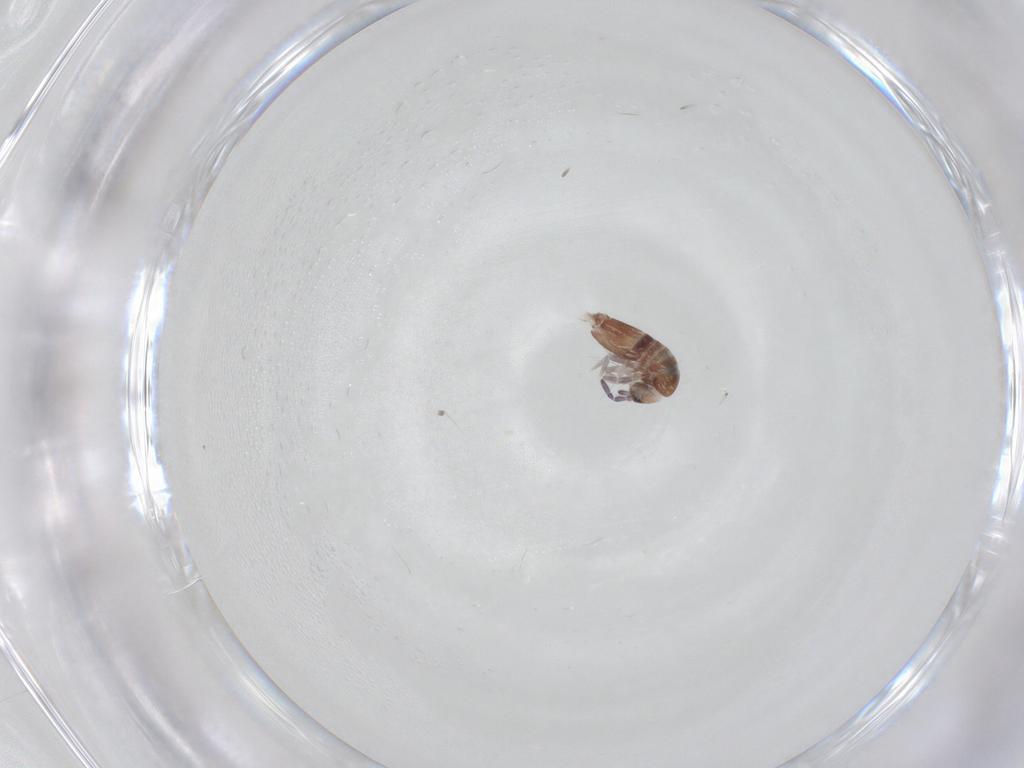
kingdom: Animalia
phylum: Arthropoda
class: Collembola
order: Entomobryomorpha
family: Entomobryidae
